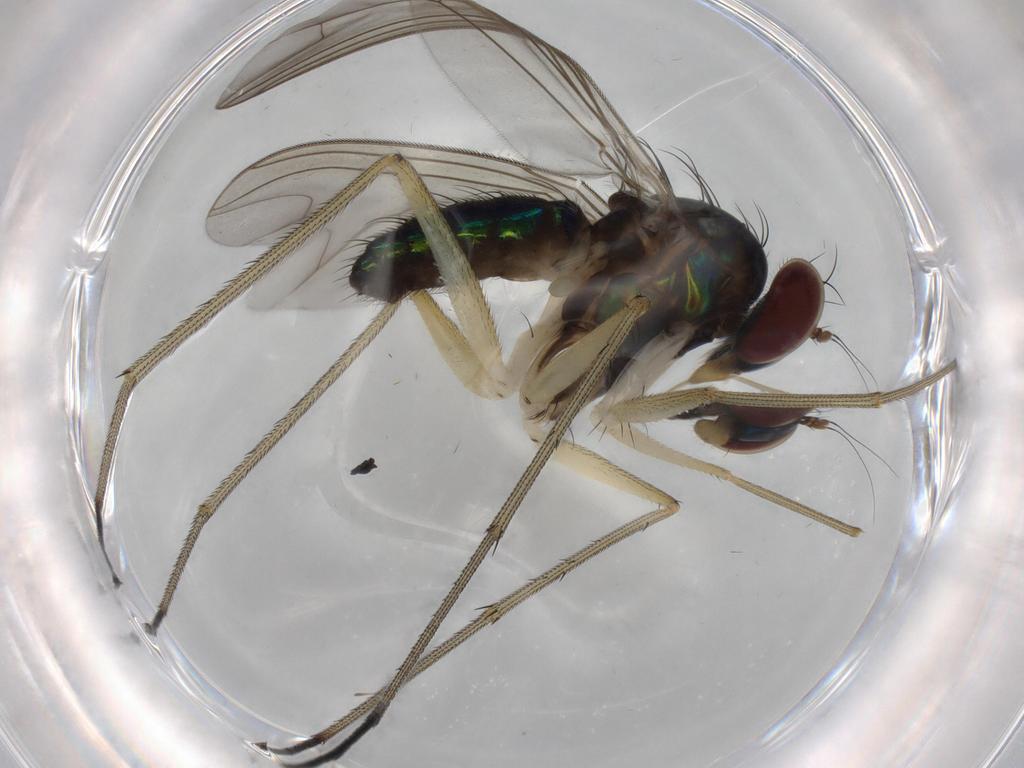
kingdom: Animalia
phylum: Arthropoda
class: Insecta
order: Diptera
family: Dolichopodidae
